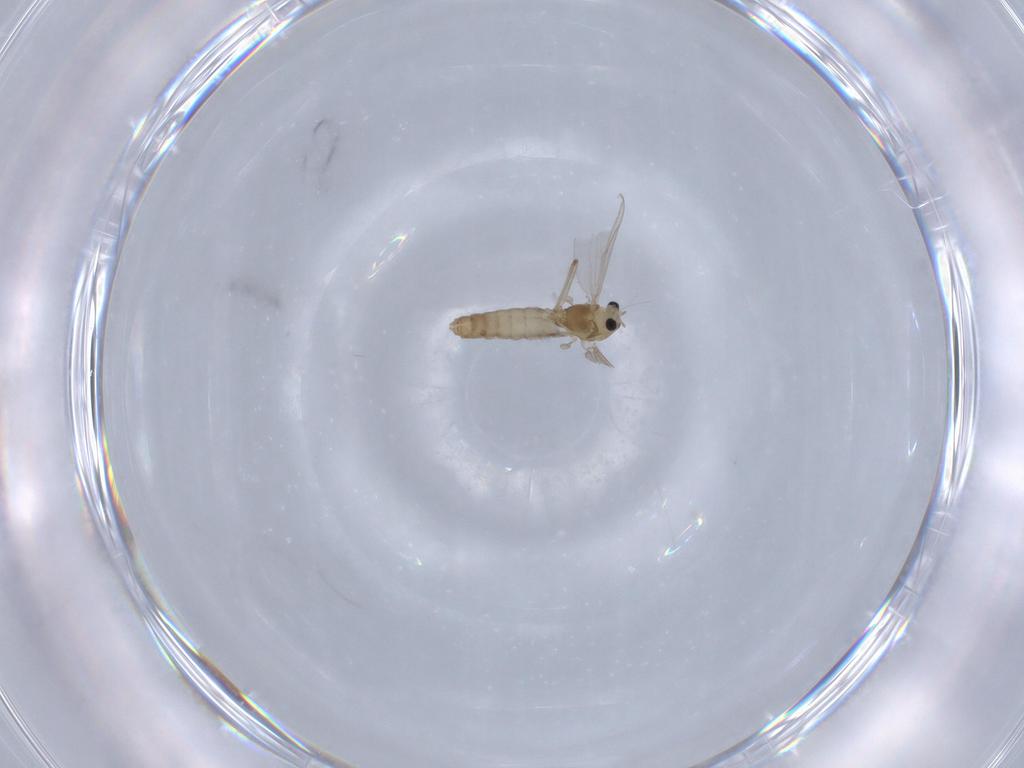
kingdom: Animalia
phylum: Arthropoda
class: Insecta
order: Diptera
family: Chironomidae
